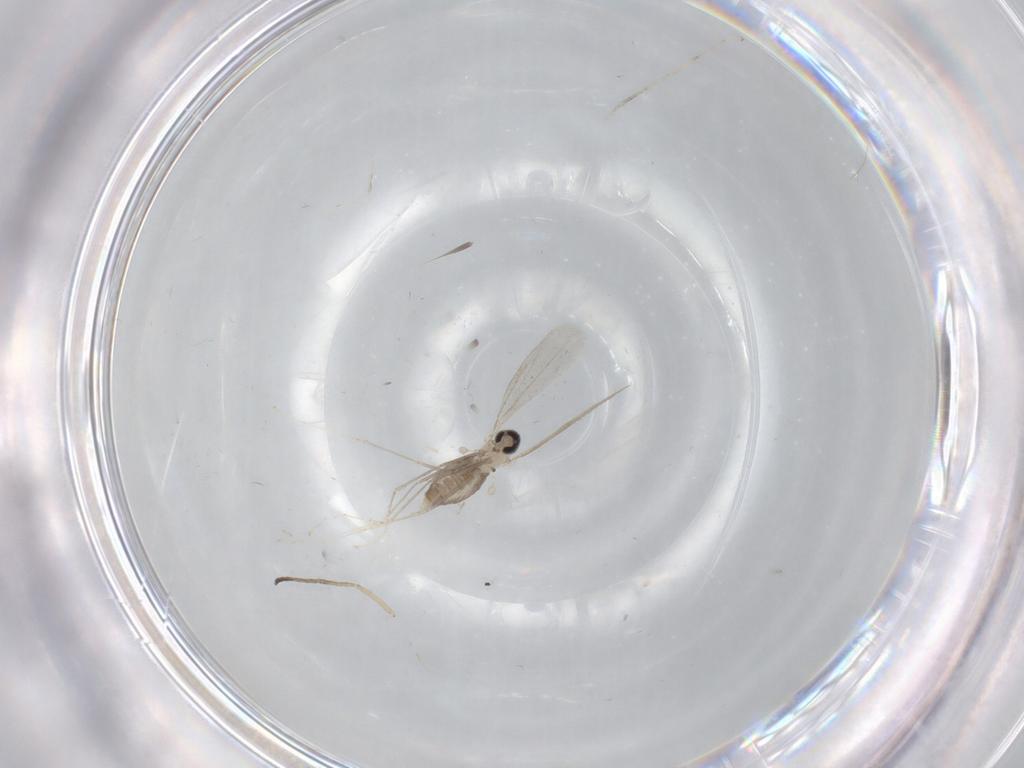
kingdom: Animalia
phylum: Arthropoda
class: Insecta
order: Diptera
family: Cecidomyiidae
